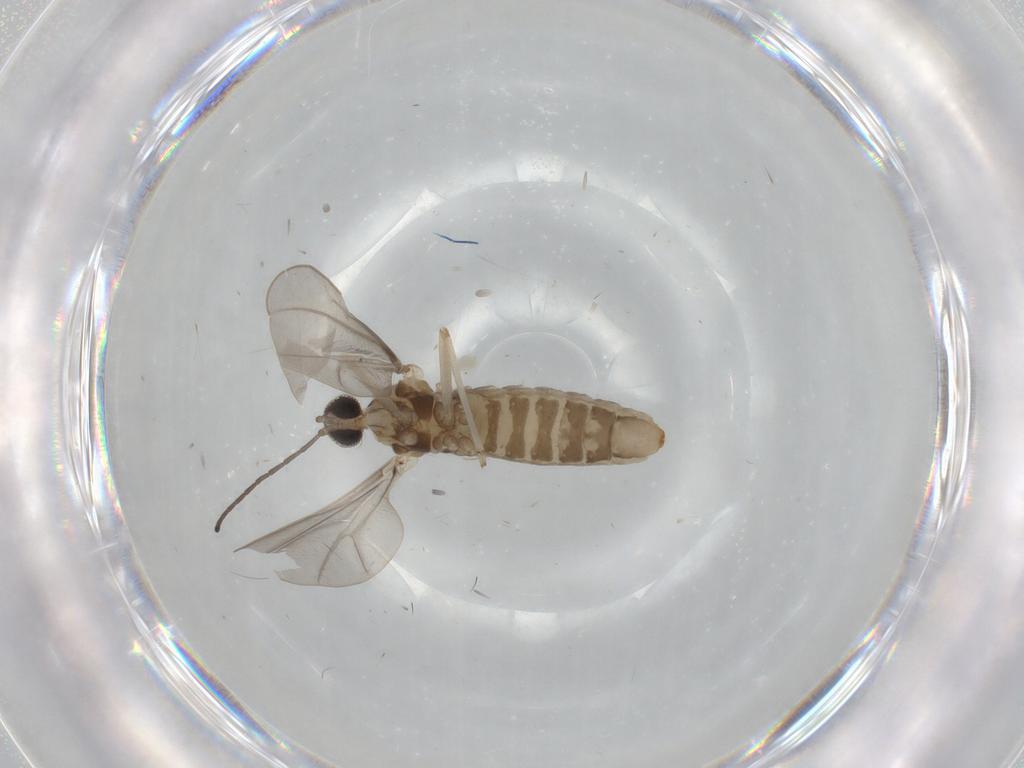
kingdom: Animalia
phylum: Arthropoda
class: Insecta
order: Diptera
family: Cecidomyiidae
